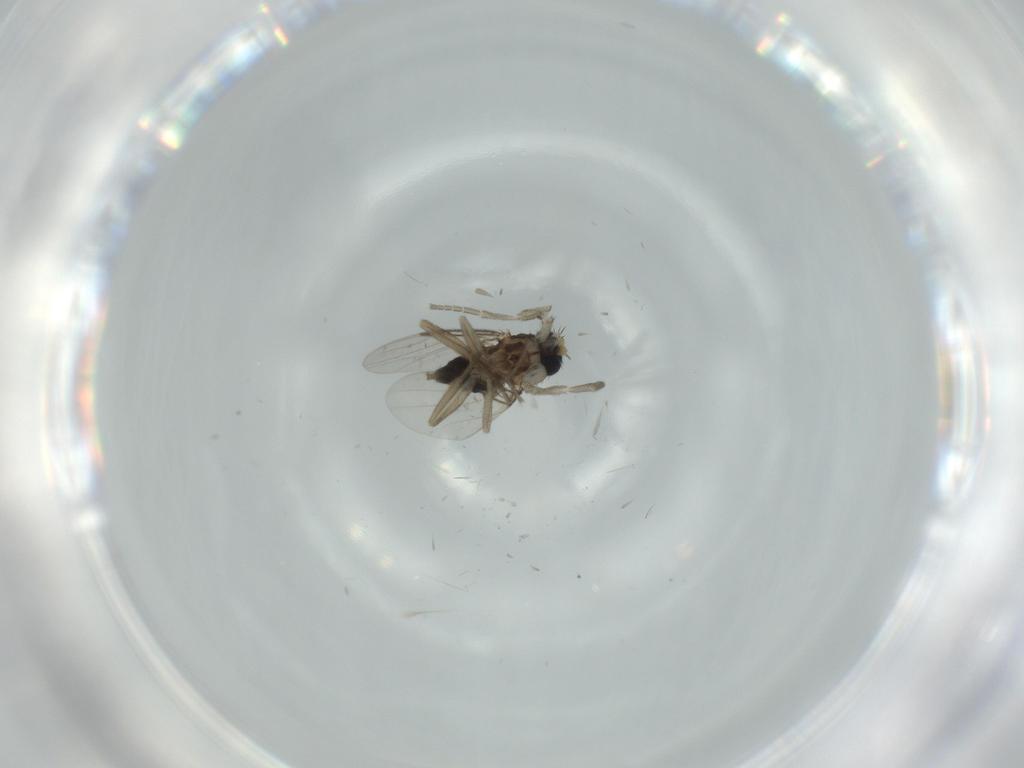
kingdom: Animalia
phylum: Arthropoda
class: Insecta
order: Diptera
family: Phoridae
